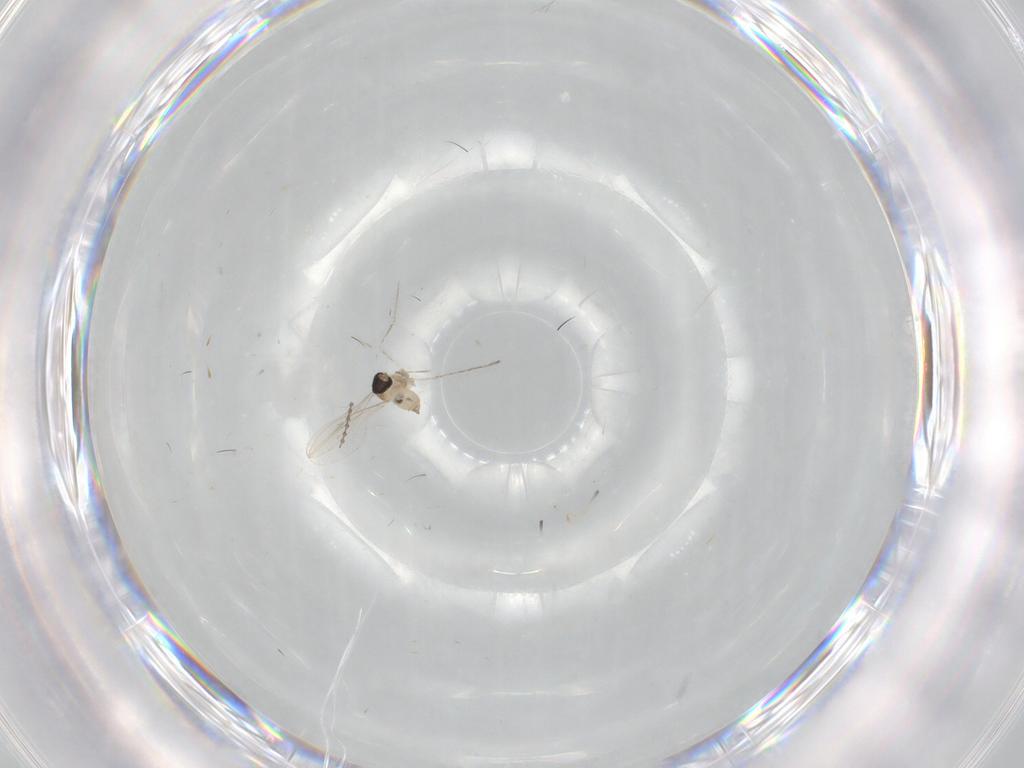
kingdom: Animalia
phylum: Arthropoda
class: Insecta
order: Diptera
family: Cecidomyiidae
